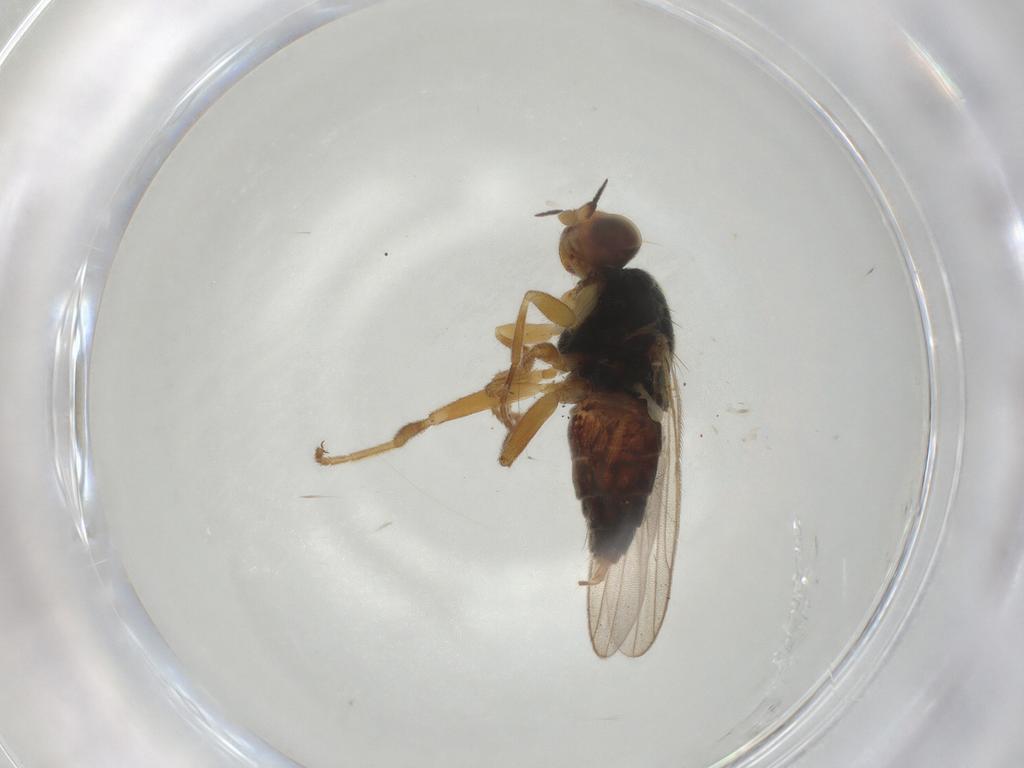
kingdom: Animalia
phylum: Arthropoda
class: Insecta
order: Diptera
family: Chloropidae
